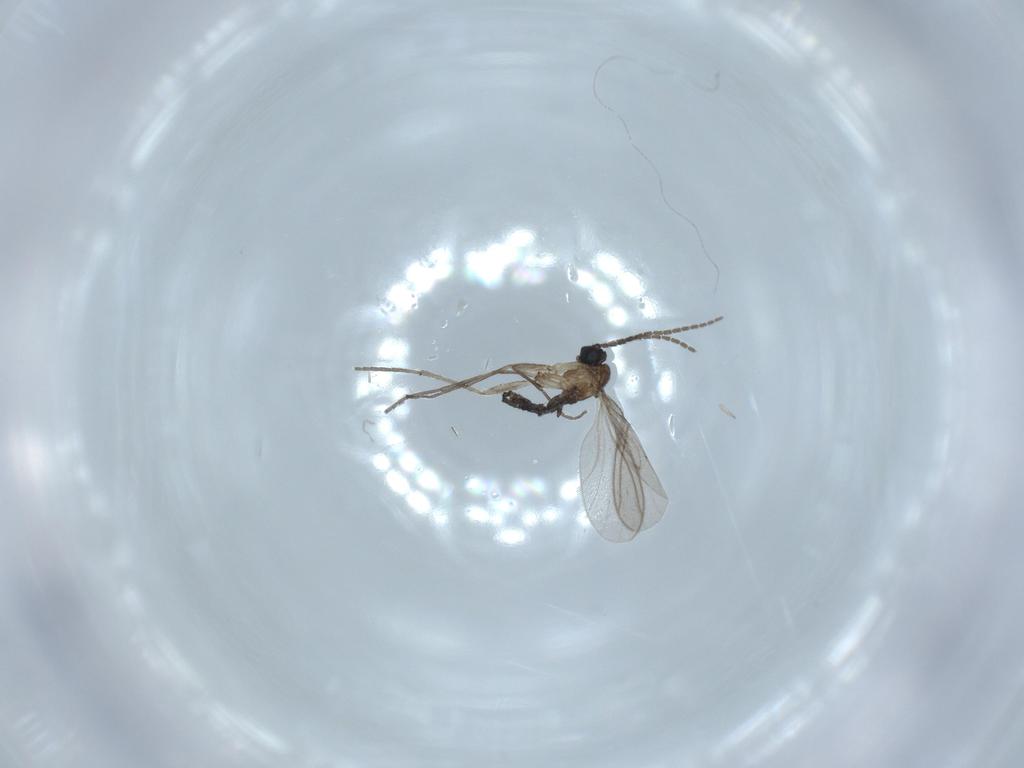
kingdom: Animalia
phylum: Arthropoda
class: Insecta
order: Diptera
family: Sciaridae
